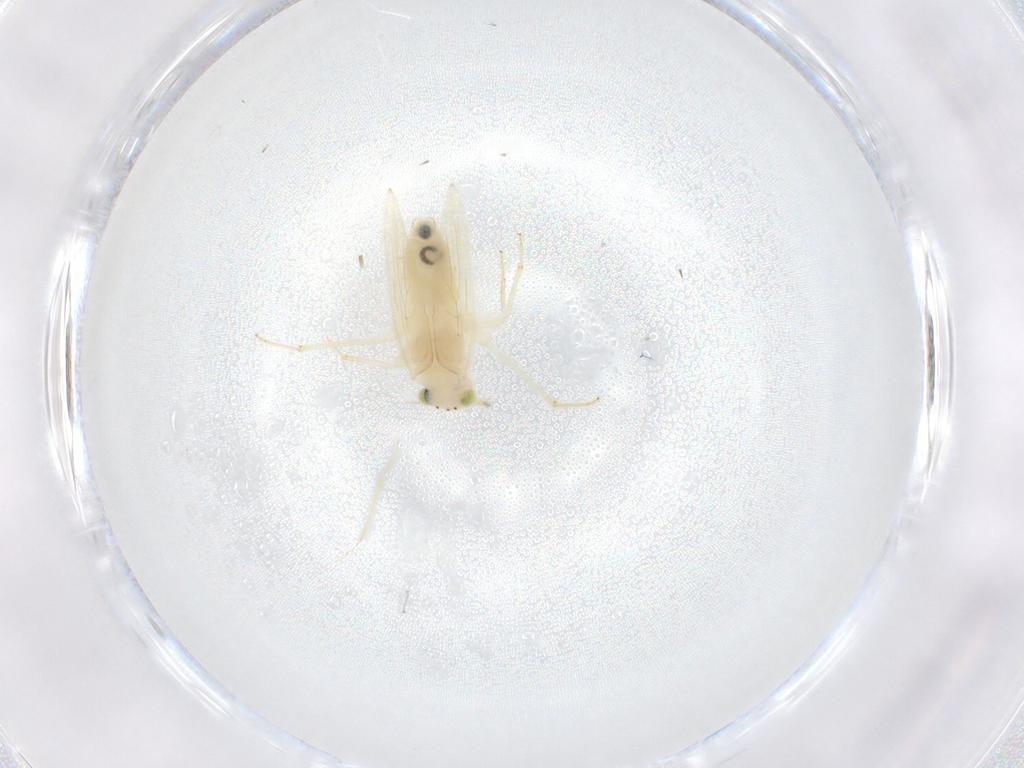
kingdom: Animalia
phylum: Arthropoda
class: Insecta
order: Psocodea
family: Lepidopsocidae
